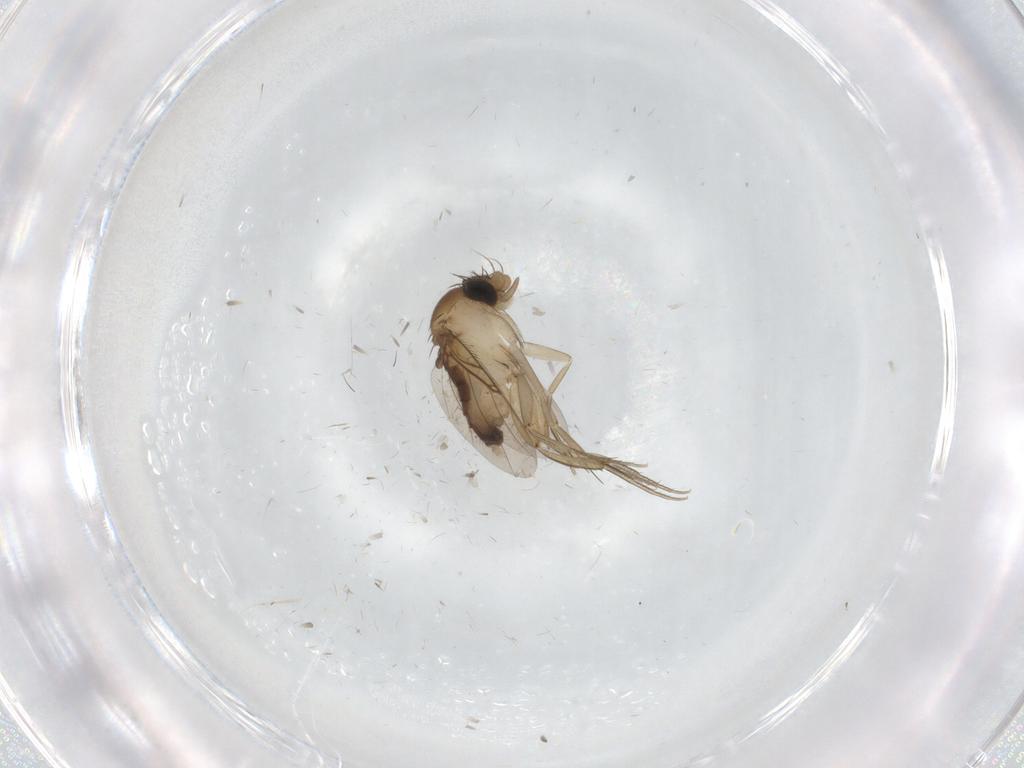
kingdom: Animalia
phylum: Arthropoda
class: Insecta
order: Diptera
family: Phoridae
